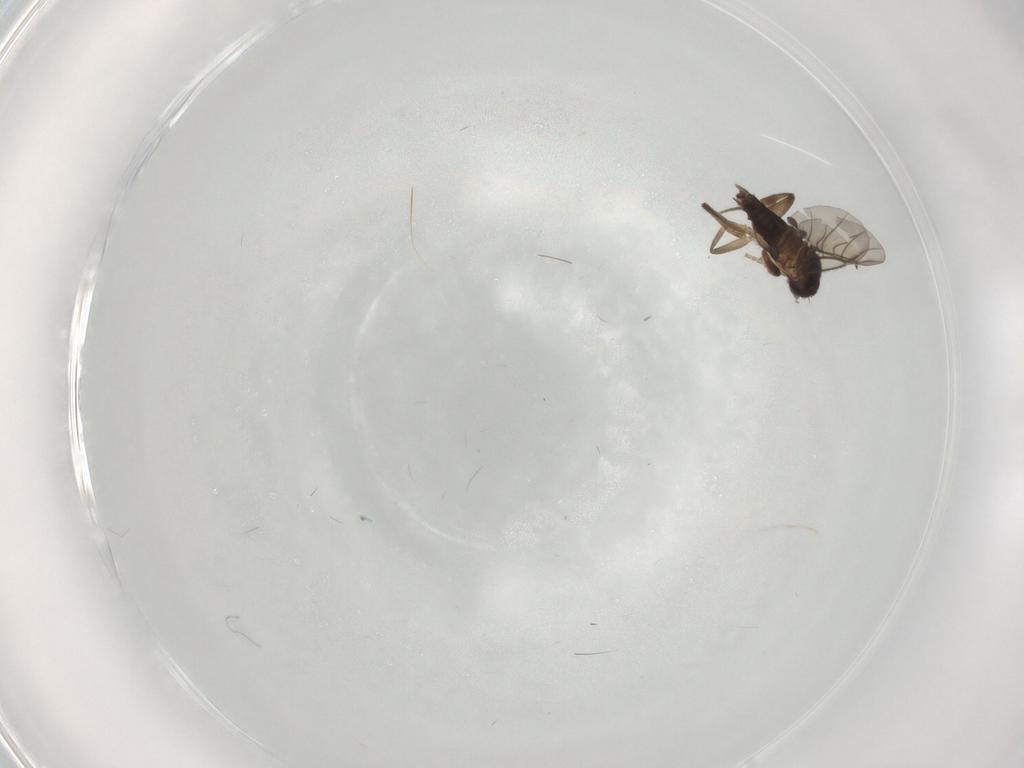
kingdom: Animalia
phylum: Arthropoda
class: Insecta
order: Diptera
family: Phoridae
